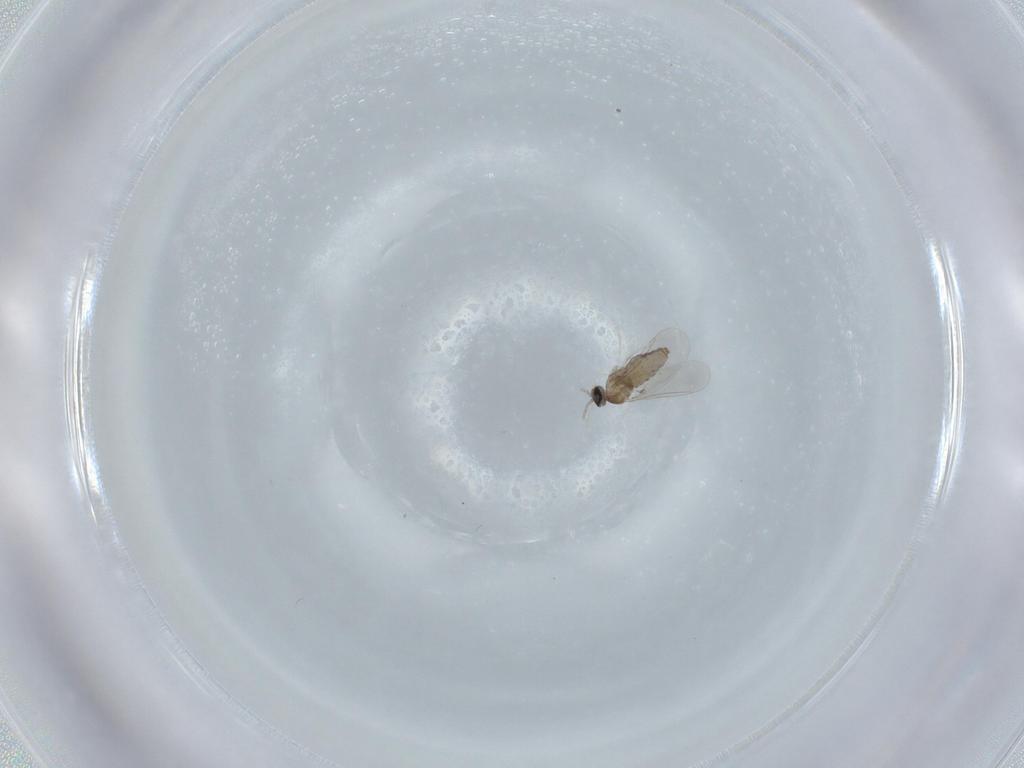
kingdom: Animalia
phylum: Arthropoda
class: Insecta
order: Diptera
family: Cecidomyiidae
